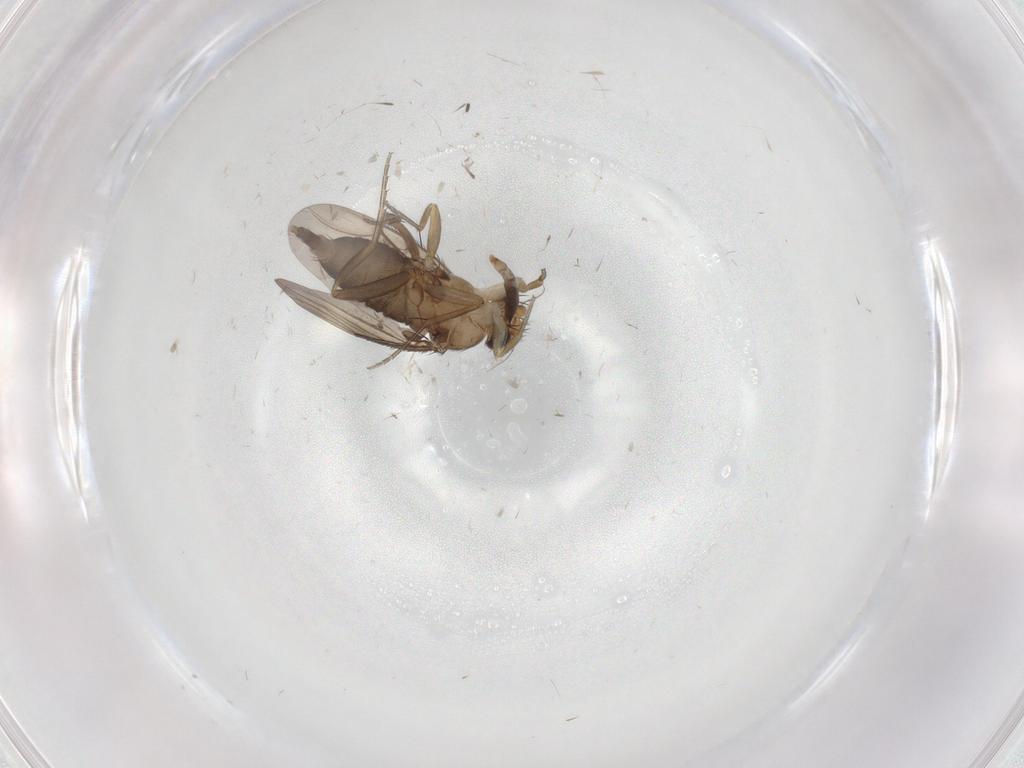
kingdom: Animalia
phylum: Arthropoda
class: Insecta
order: Diptera
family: Phoridae
